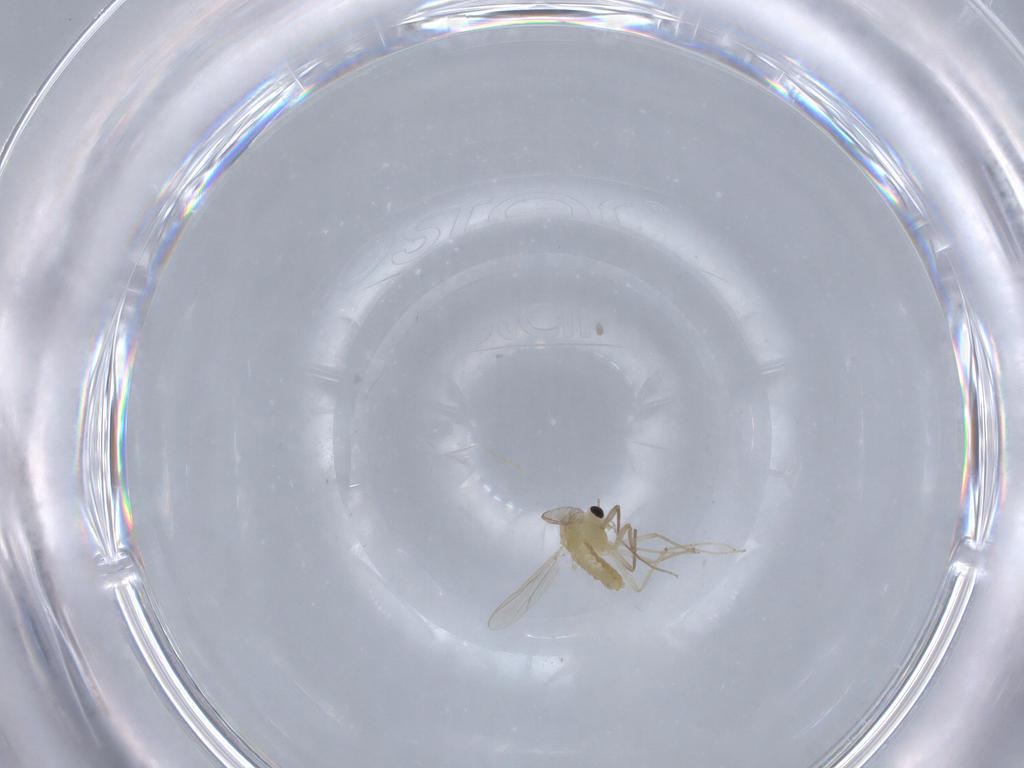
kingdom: Animalia
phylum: Arthropoda
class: Insecta
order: Diptera
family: Chironomidae
